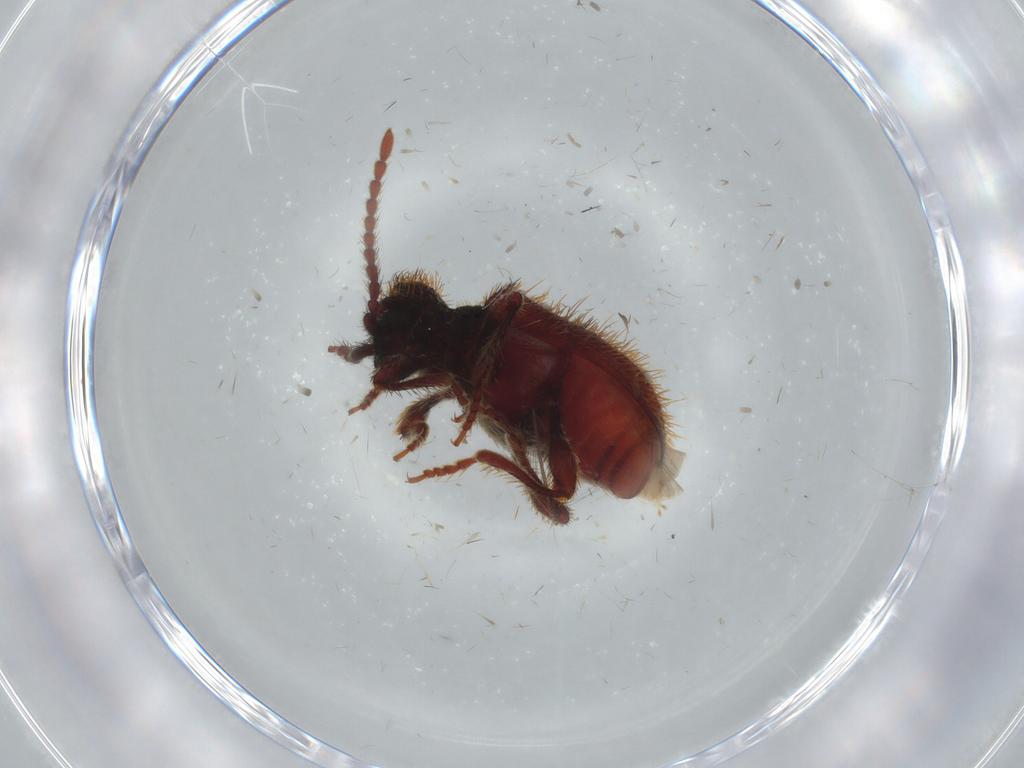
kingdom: Animalia
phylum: Arthropoda
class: Insecta
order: Coleoptera
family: Ptinidae
